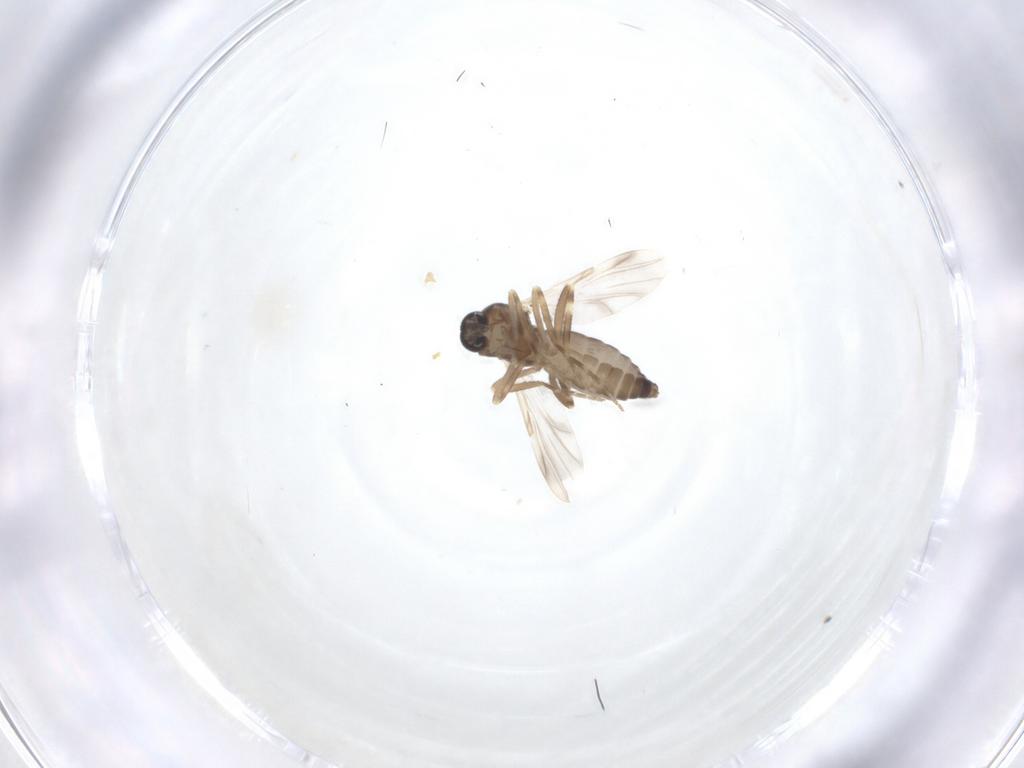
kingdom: Animalia
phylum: Arthropoda
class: Insecta
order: Diptera
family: Ceratopogonidae
